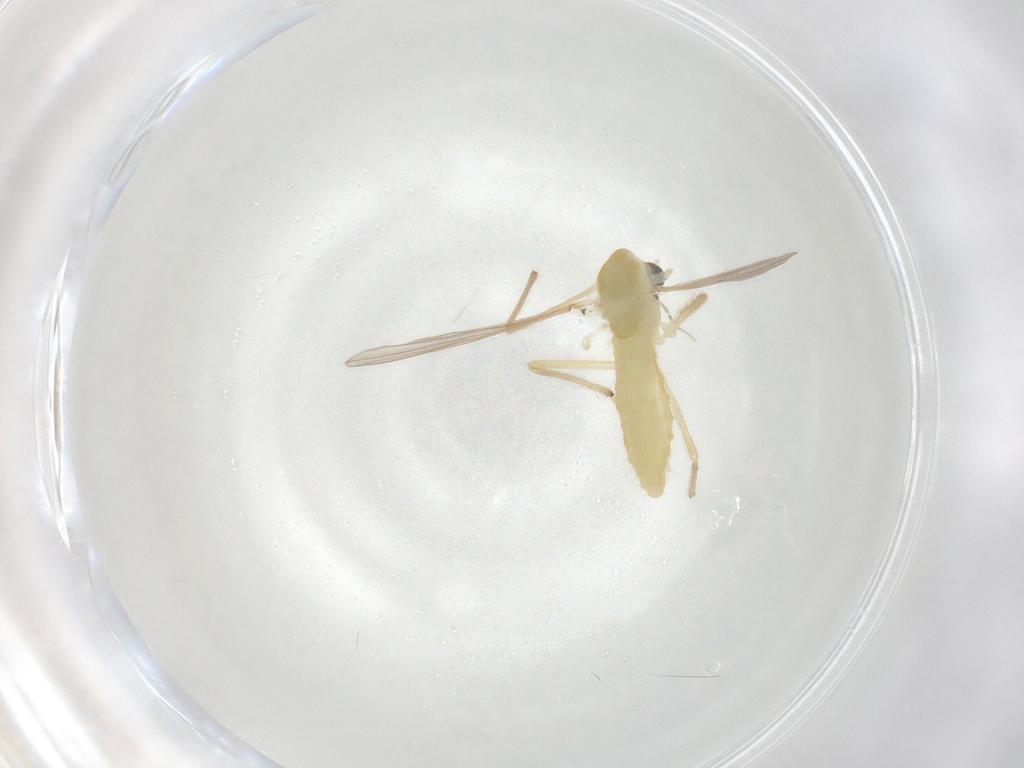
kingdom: Animalia
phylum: Arthropoda
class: Insecta
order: Diptera
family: Chironomidae
